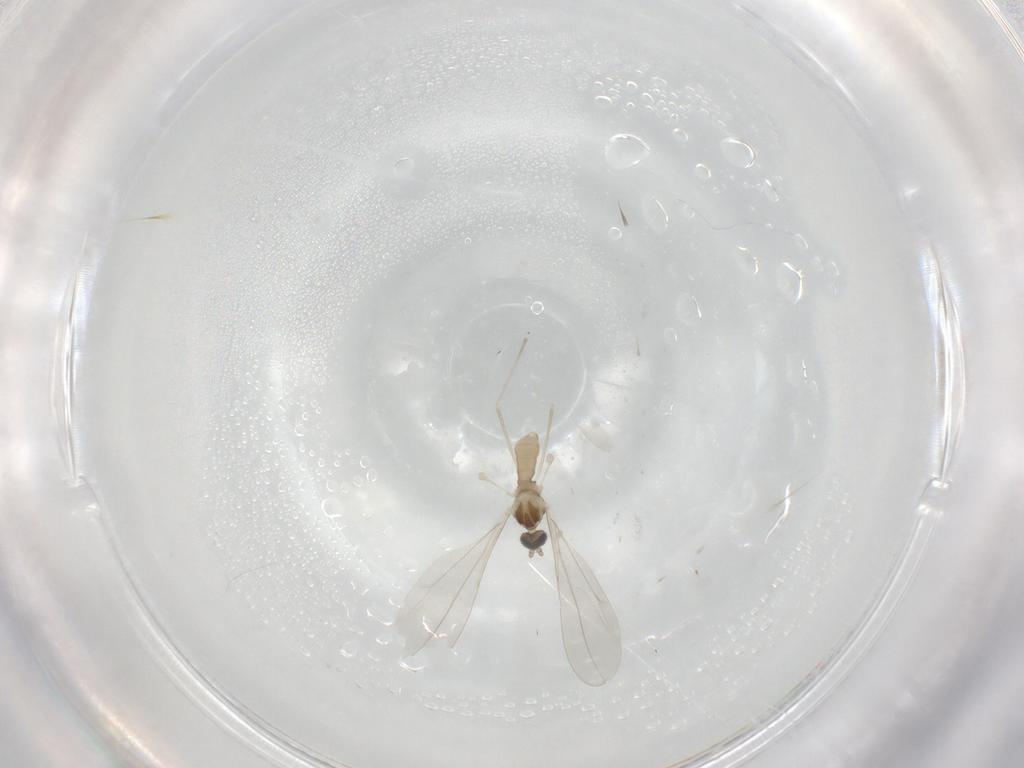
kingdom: Animalia
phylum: Arthropoda
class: Insecta
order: Diptera
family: Cecidomyiidae
